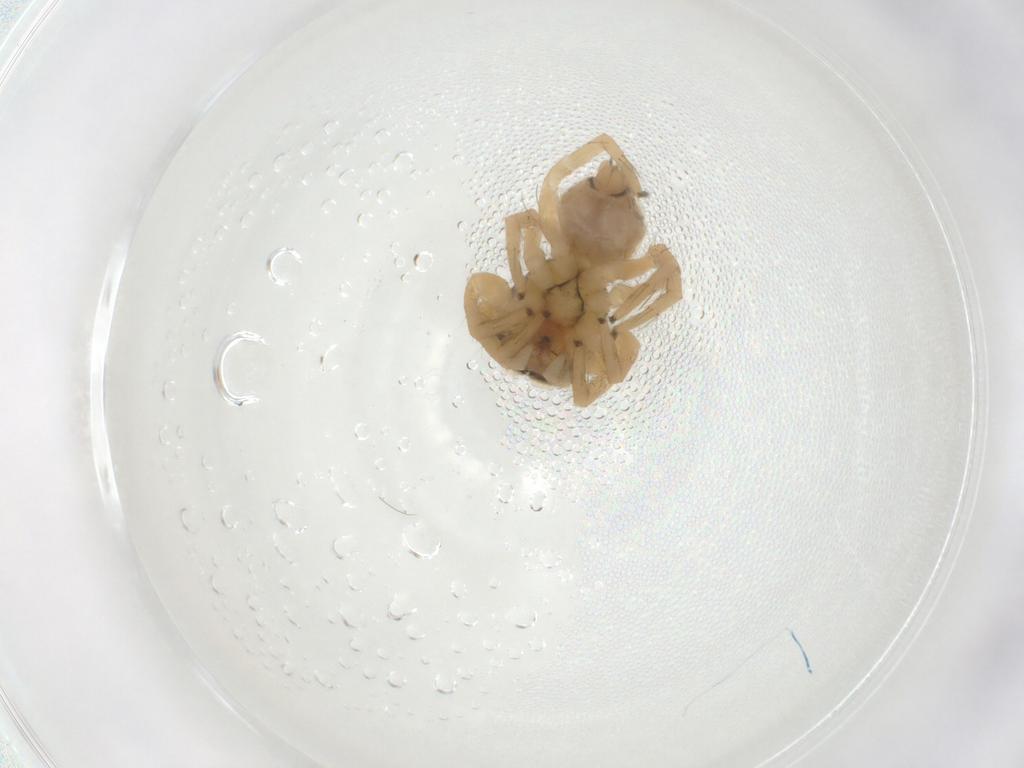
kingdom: Animalia
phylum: Arthropoda
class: Arachnida
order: Araneae
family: Salticidae
